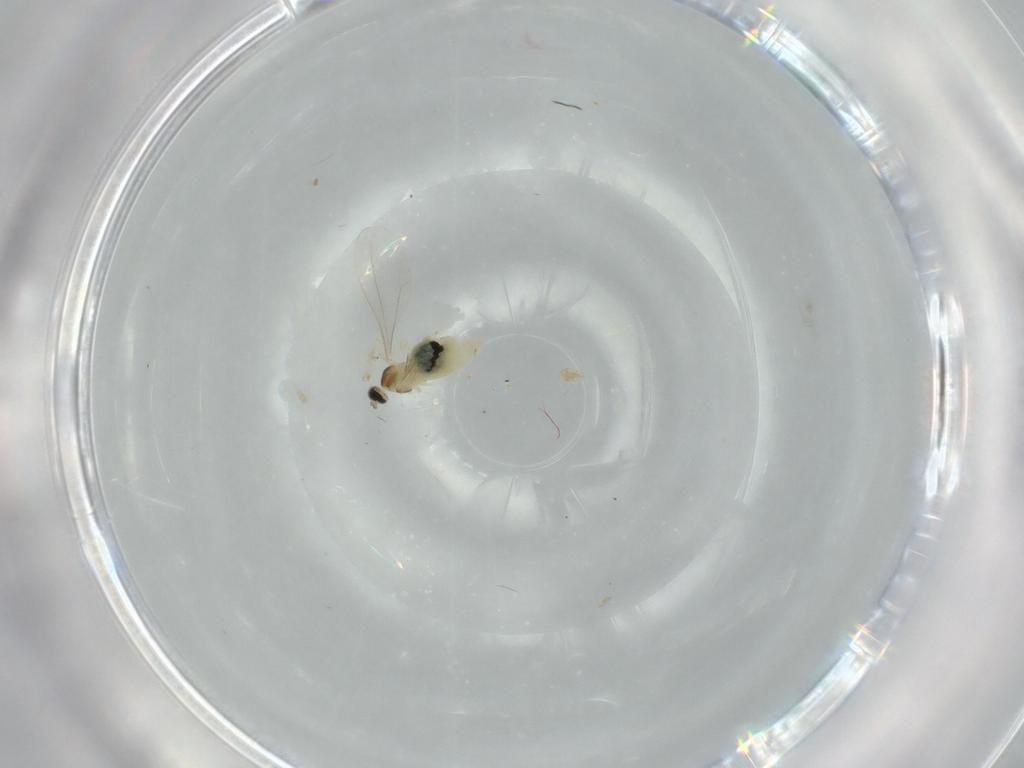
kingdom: Animalia
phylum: Arthropoda
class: Insecta
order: Diptera
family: Cecidomyiidae
